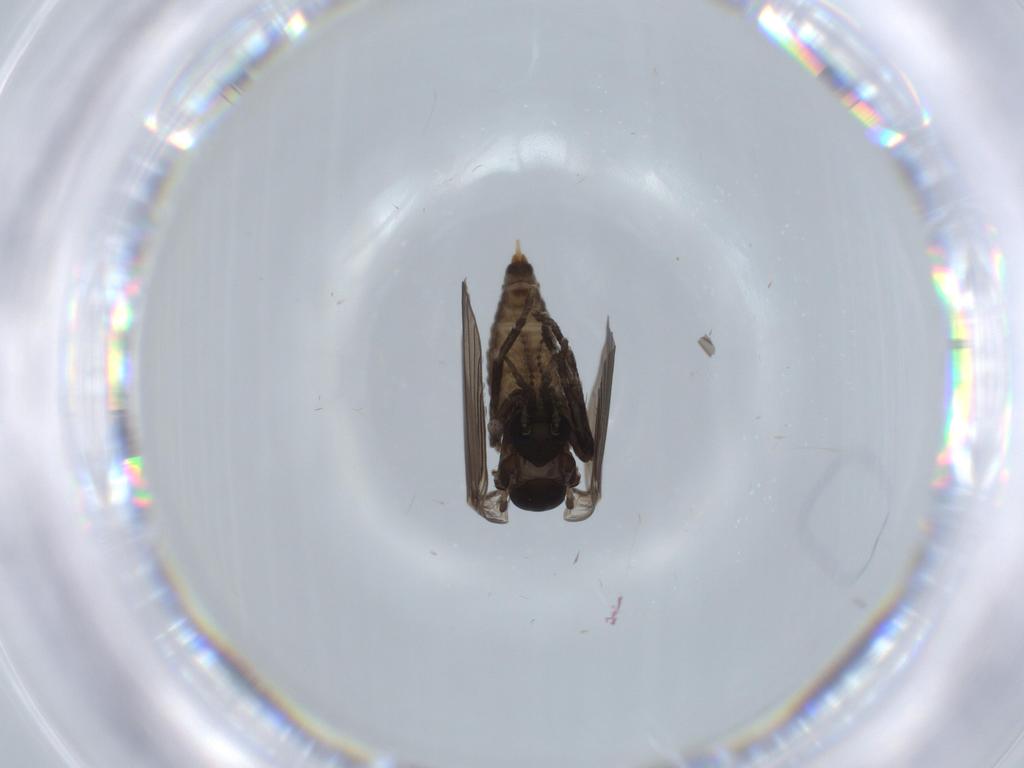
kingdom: Animalia
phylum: Arthropoda
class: Insecta
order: Diptera
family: Psychodidae
